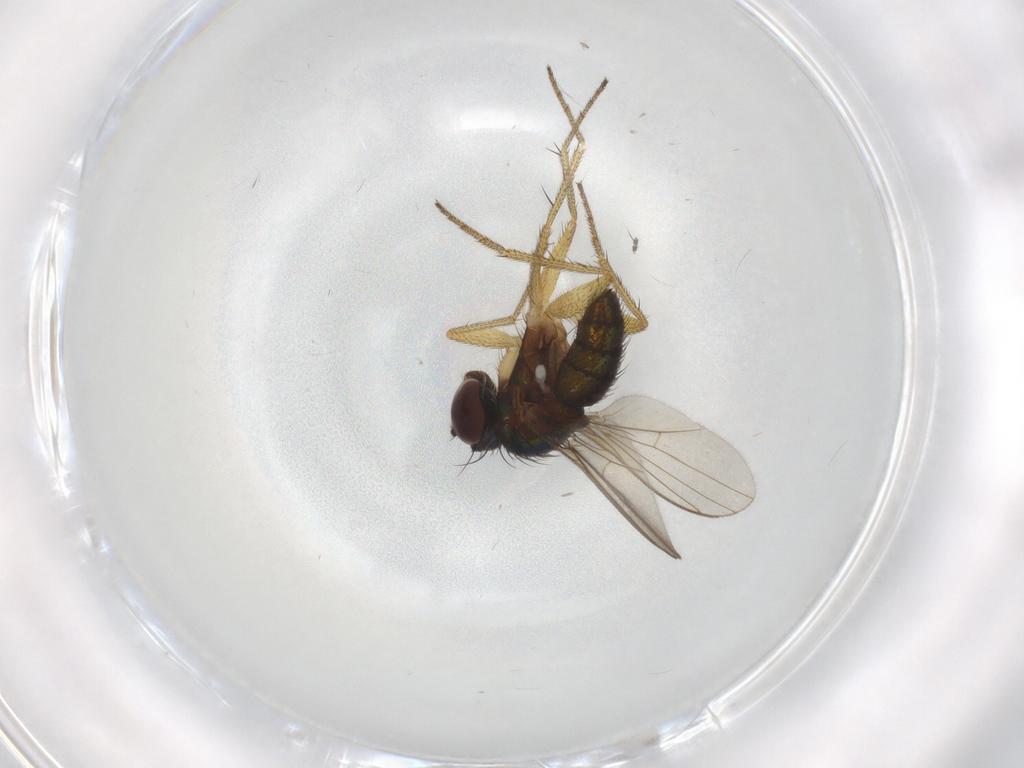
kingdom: Animalia
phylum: Arthropoda
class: Insecta
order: Diptera
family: Sciaridae
